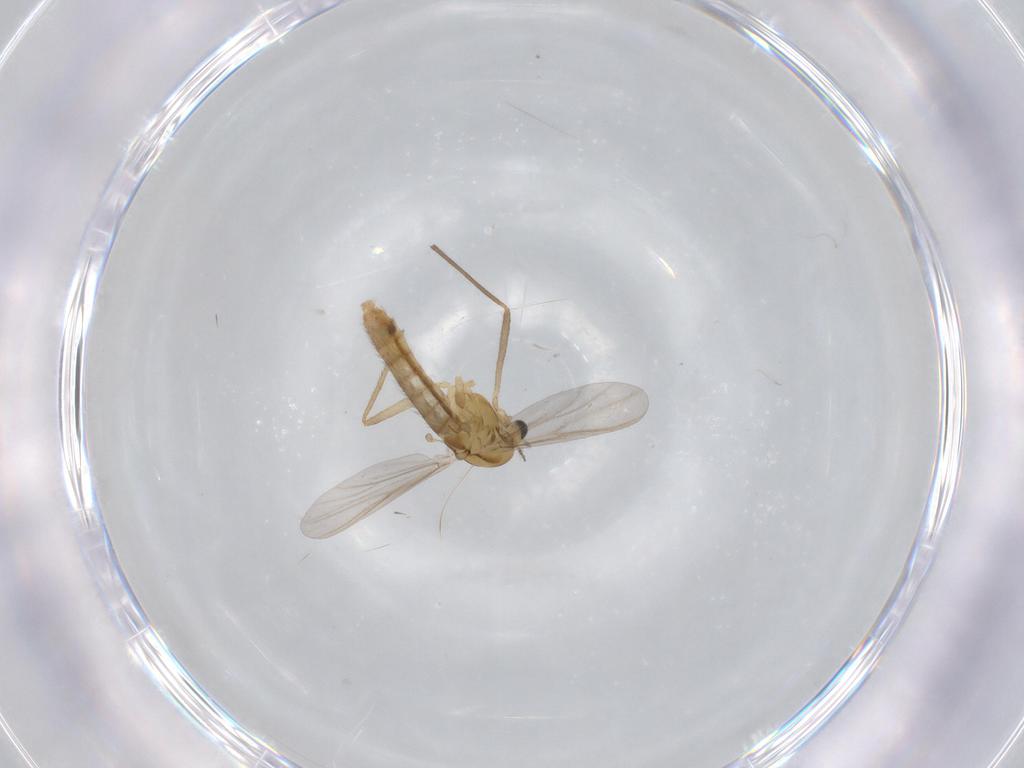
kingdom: Animalia
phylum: Arthropoda
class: Insecta
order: Diptera
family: Chironomidae
